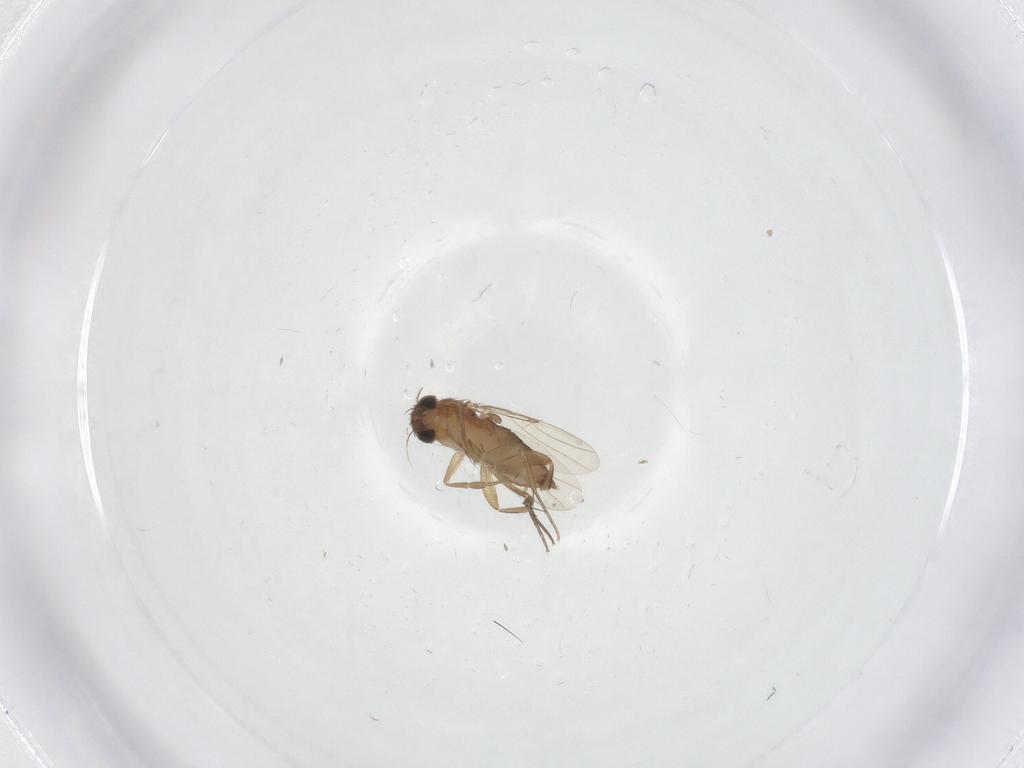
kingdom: Animalia
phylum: Arthropoda
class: Insecta
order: Diptera
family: Phoridae
